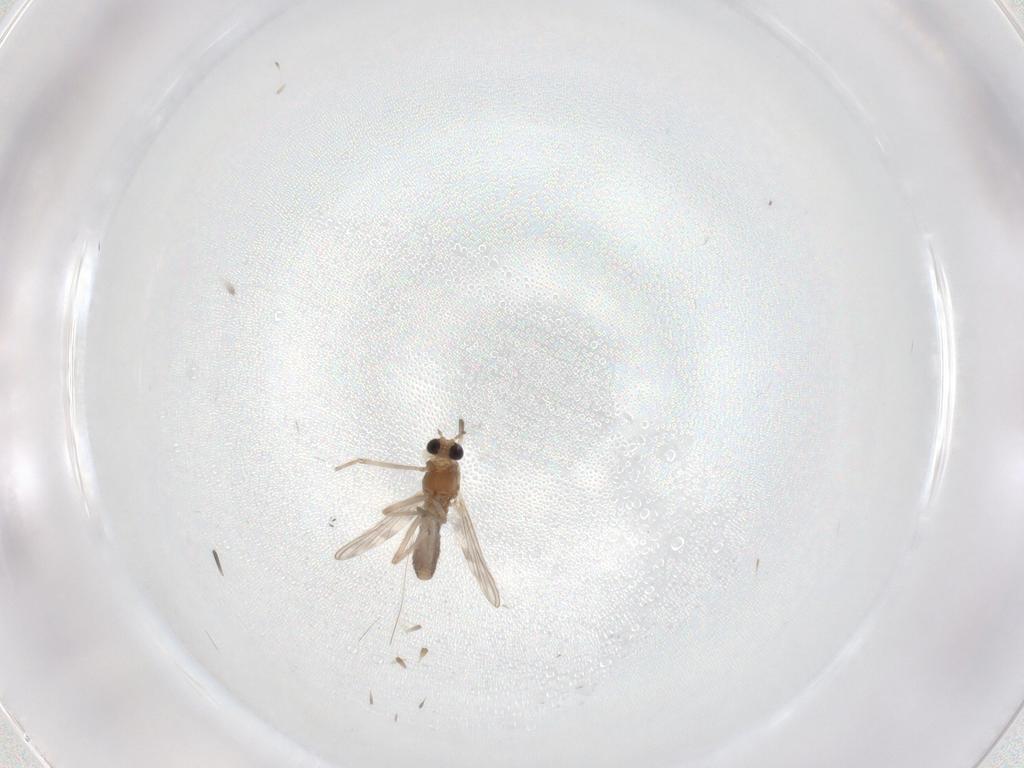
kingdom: Animalia
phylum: Arthropoda
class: Insecta
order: Diptera
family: Chironomidae
